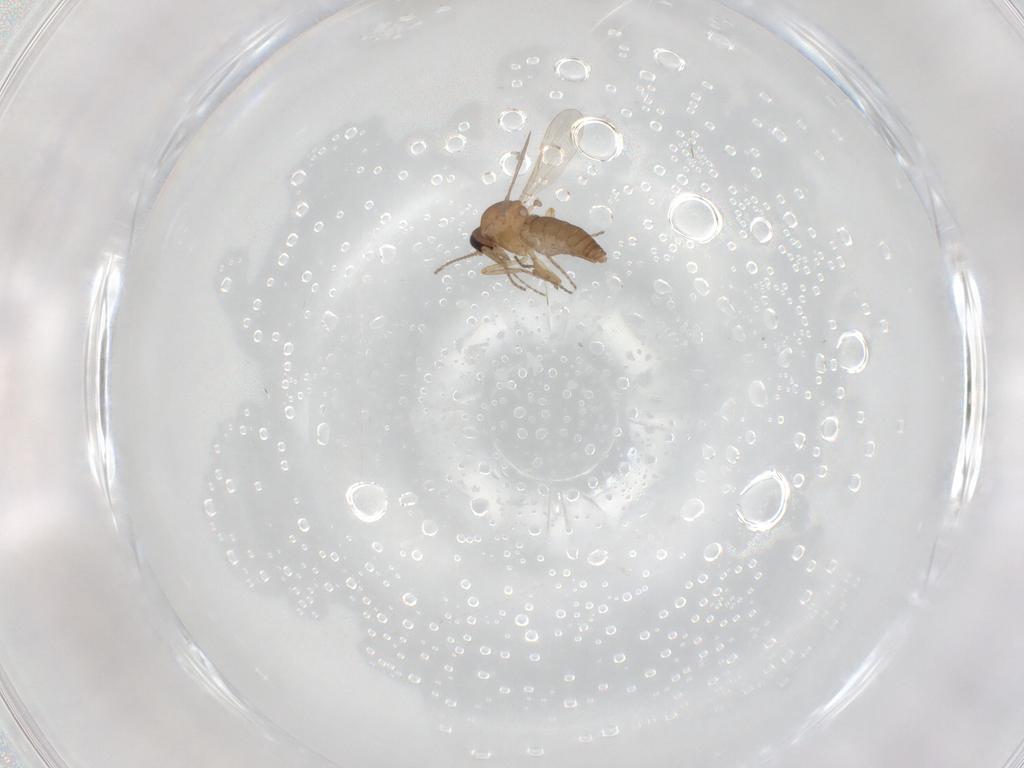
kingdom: Animalia
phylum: Arthropoda
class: Insecta
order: Diptera
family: Ceratopogonidae
